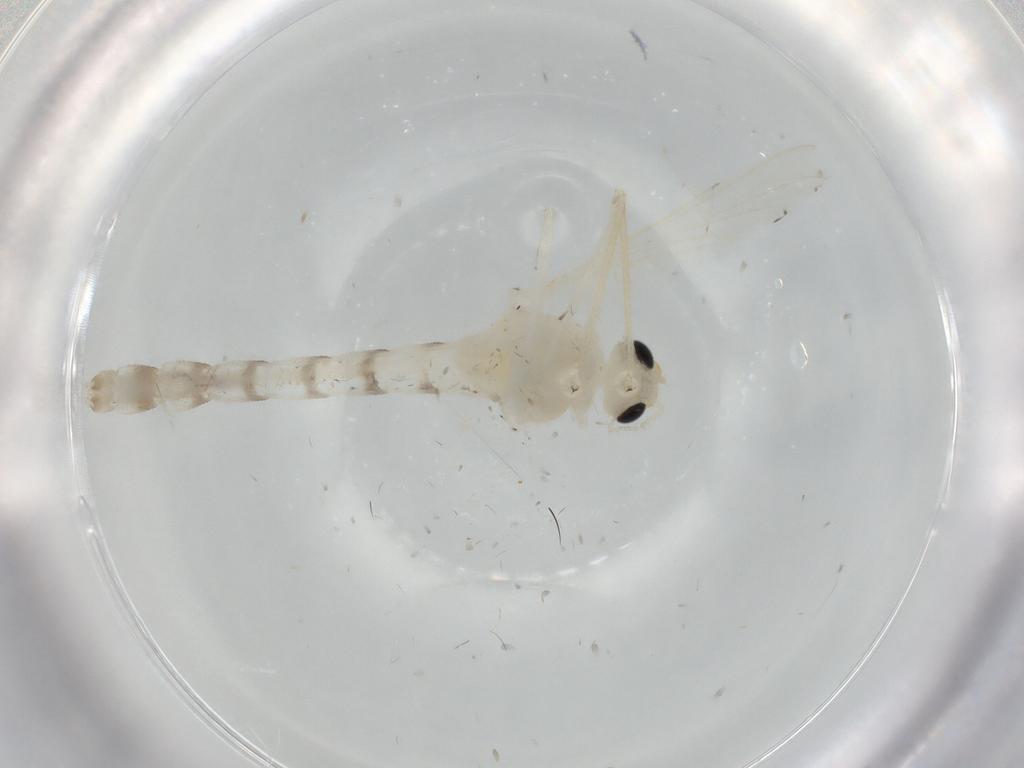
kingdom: Animalia
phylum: Arthropoda
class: Insecta
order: Diptera
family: Chironomidae
